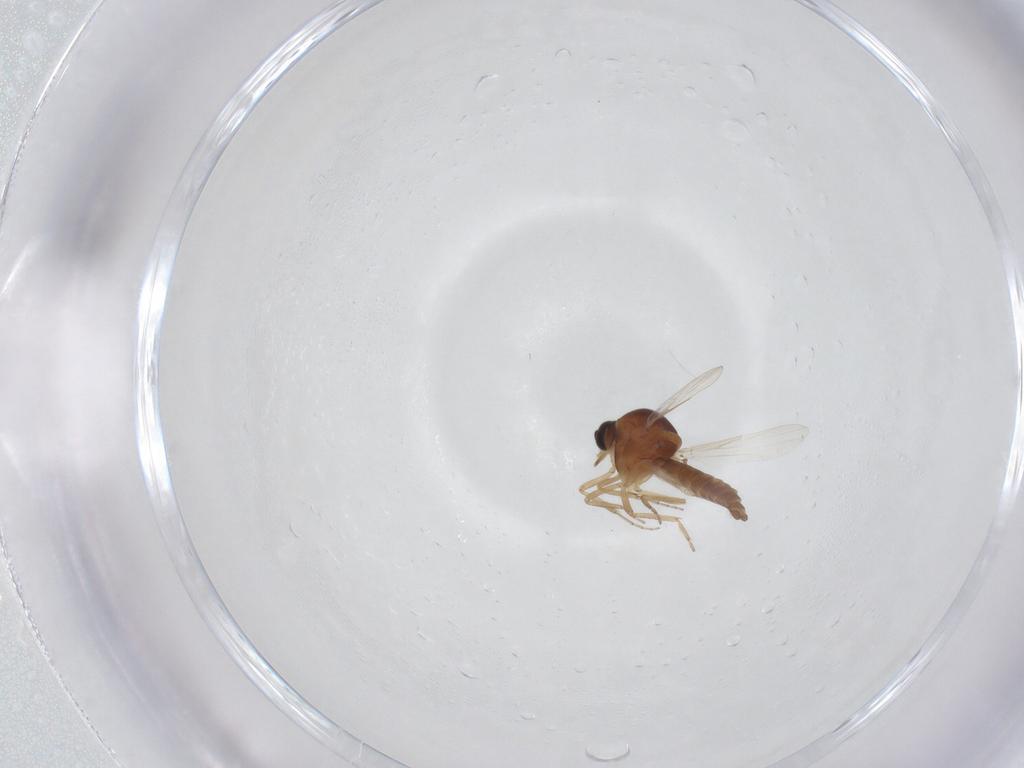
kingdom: Animalia
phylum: Arthropoda
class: Insecta
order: Diptera
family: Ceratopogonidae
